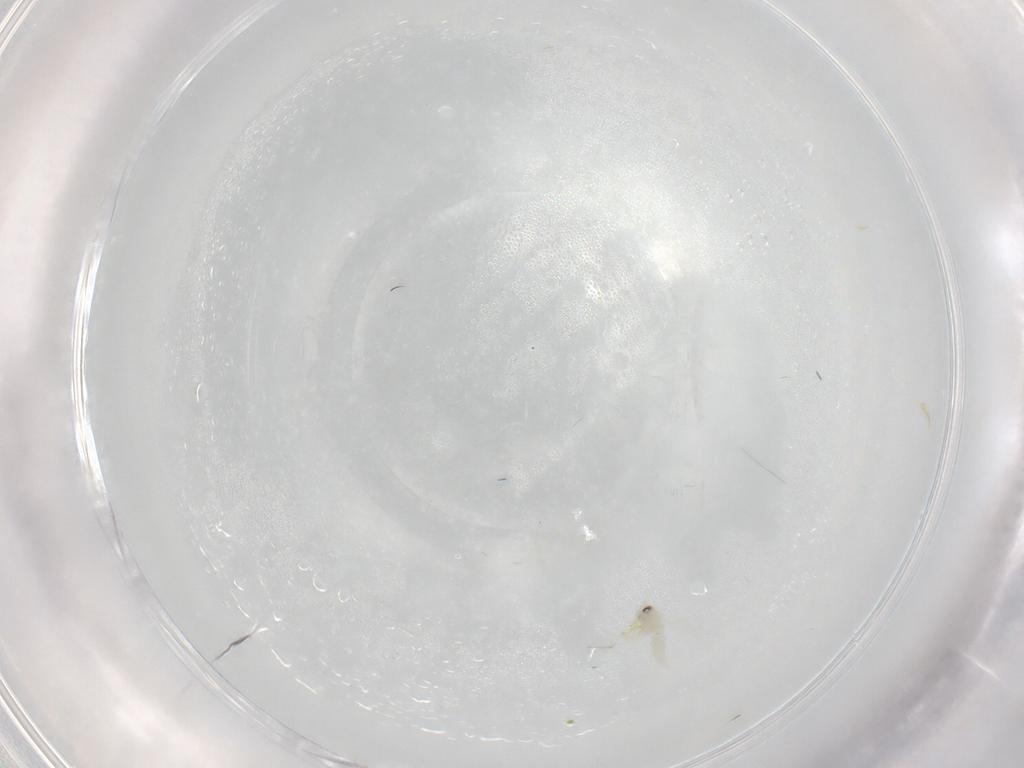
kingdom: Animalia
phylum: Arthropoda
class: Insecta
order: Hemiptera
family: Aleyrodidae
